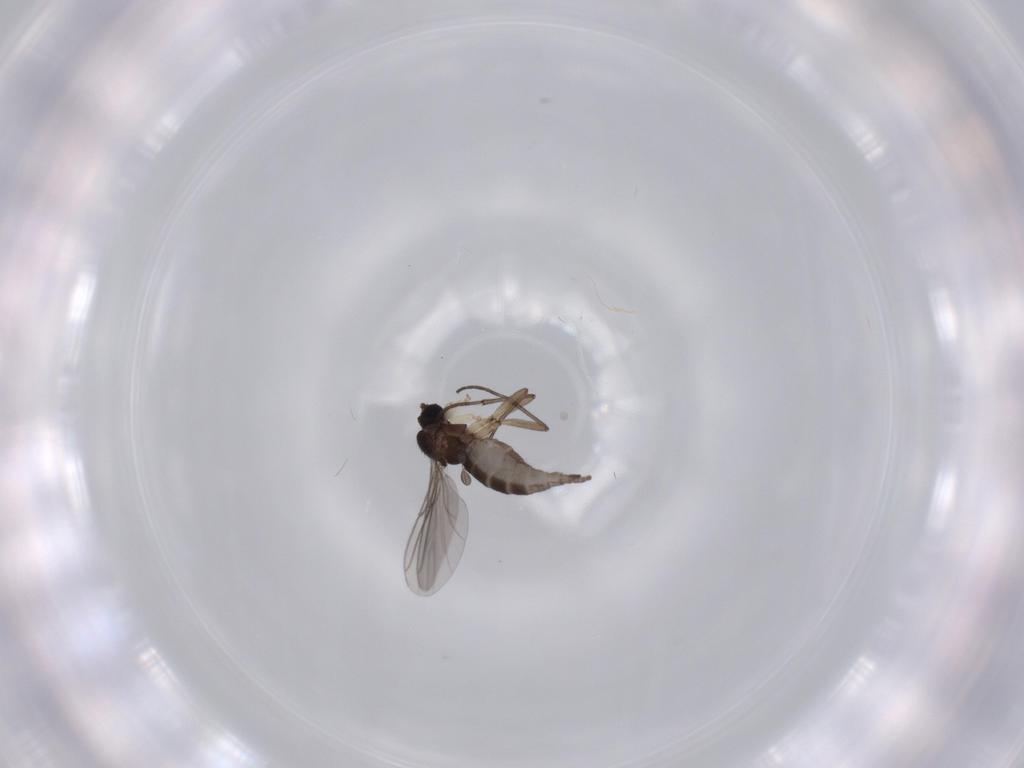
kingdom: Animalia
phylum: Arthropoda
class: Insecta
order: Diptera
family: Sciaridae
